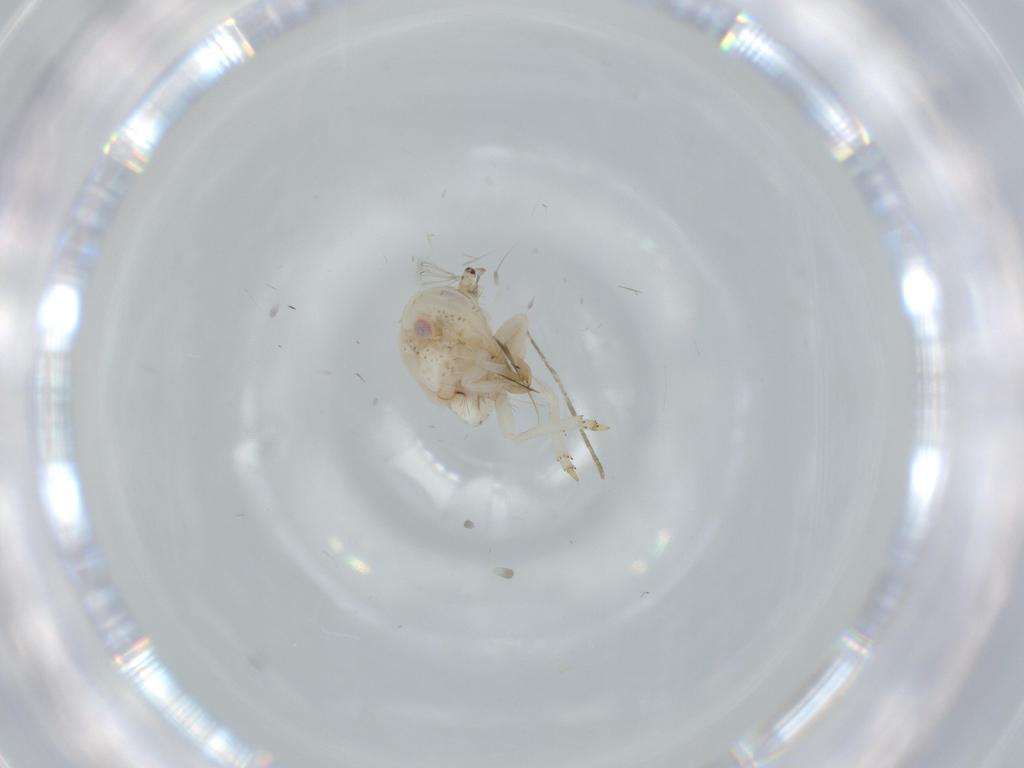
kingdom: Animalia
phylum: Arthropoda
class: Insecta
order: Hemiptera
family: Acanaloniidae
